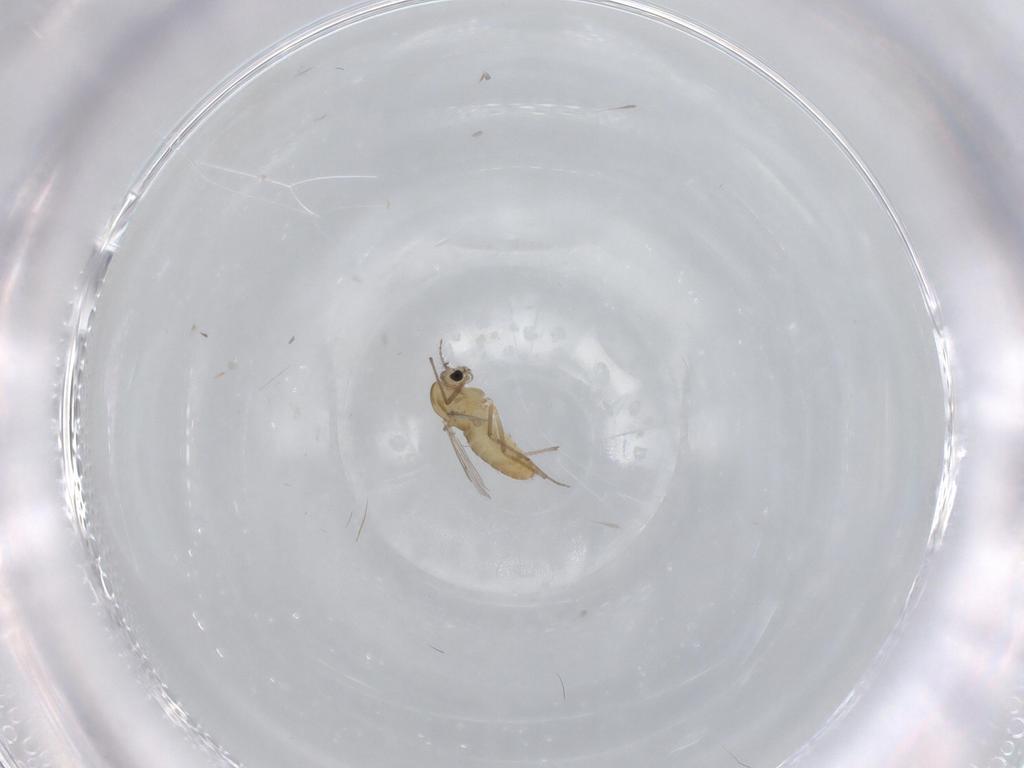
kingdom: Animalia
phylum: Arthropoda
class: Insecta
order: Diptera
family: Chironomidae
